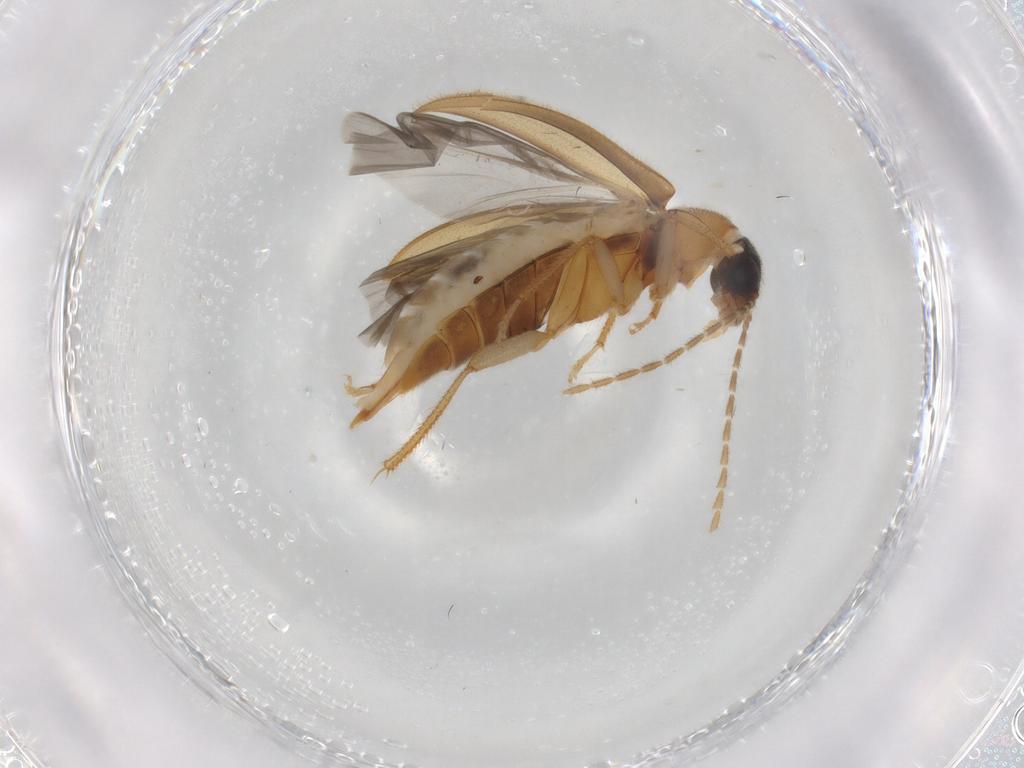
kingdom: Animalia
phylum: Arthropoda
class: Insecta
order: Coleoptera
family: Ptilodactylidae
